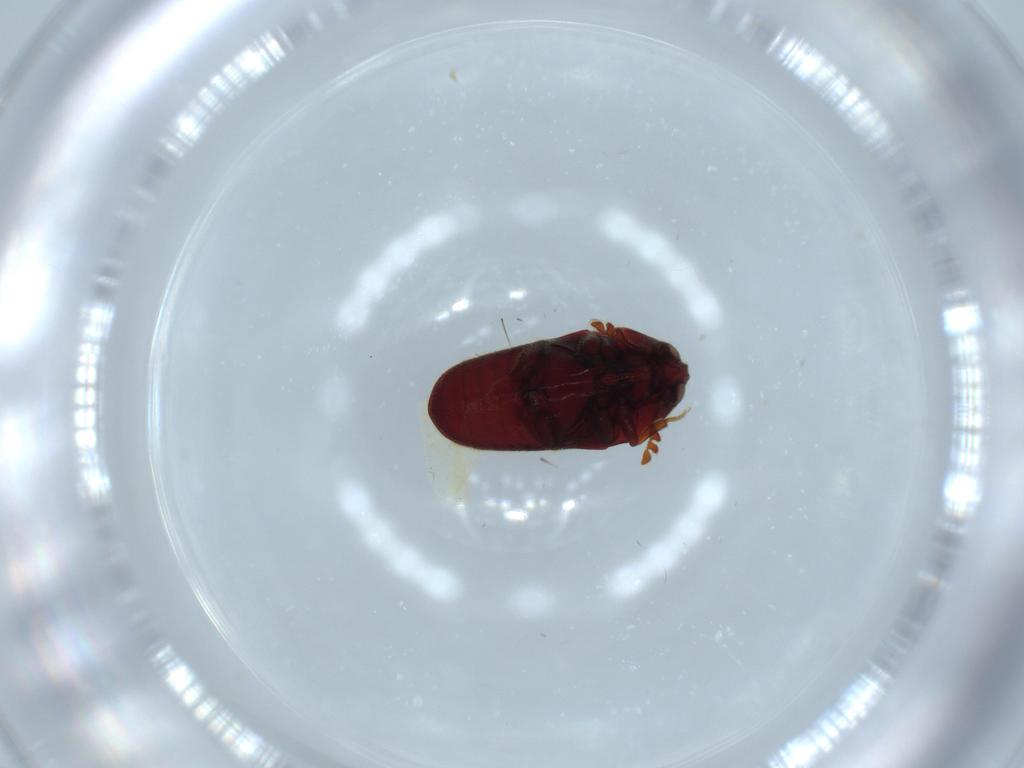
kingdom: Animalia
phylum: Arthropoda
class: Insecta
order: Coleoptera
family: Curculionidae
